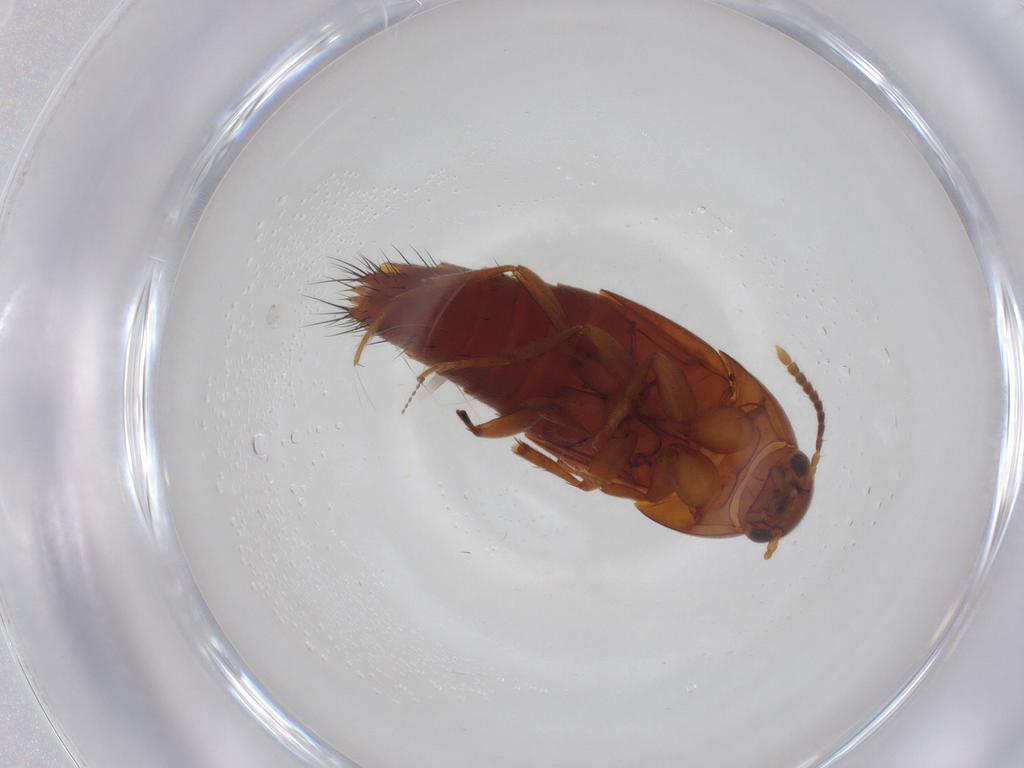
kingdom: Animalia
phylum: Arthropoda
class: Insecta
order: Coleoptera
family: Staphylinidae
